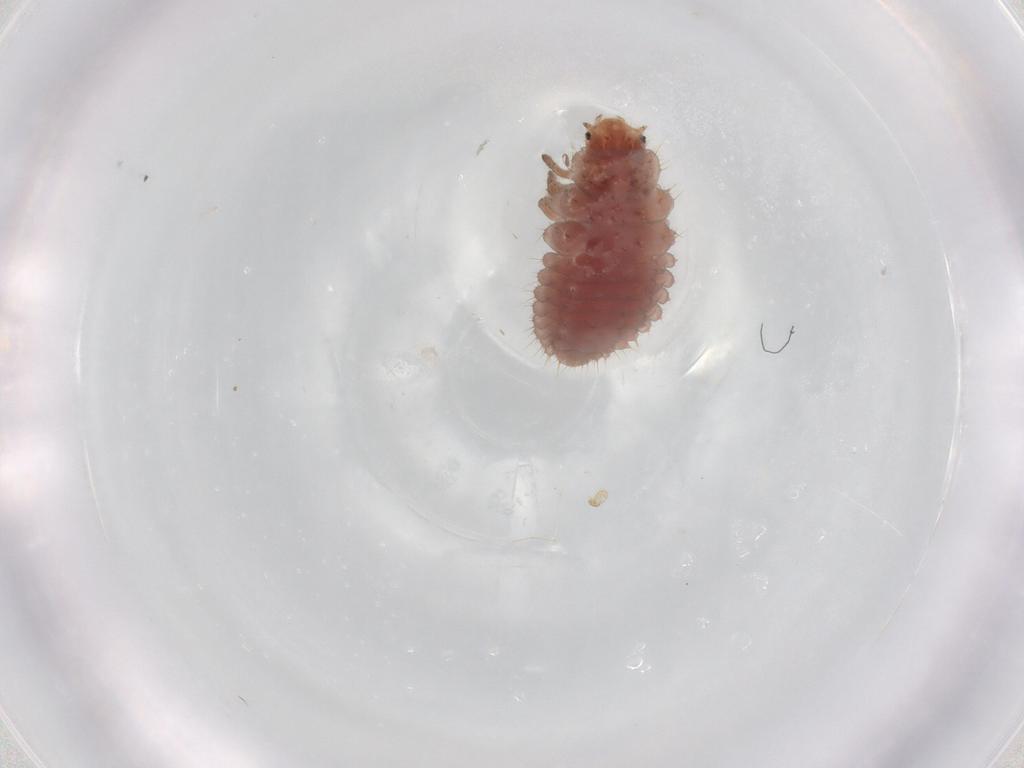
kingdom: Animalia
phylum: Arthropoda
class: Insecta
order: Coleoptera
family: Coccinellidae
